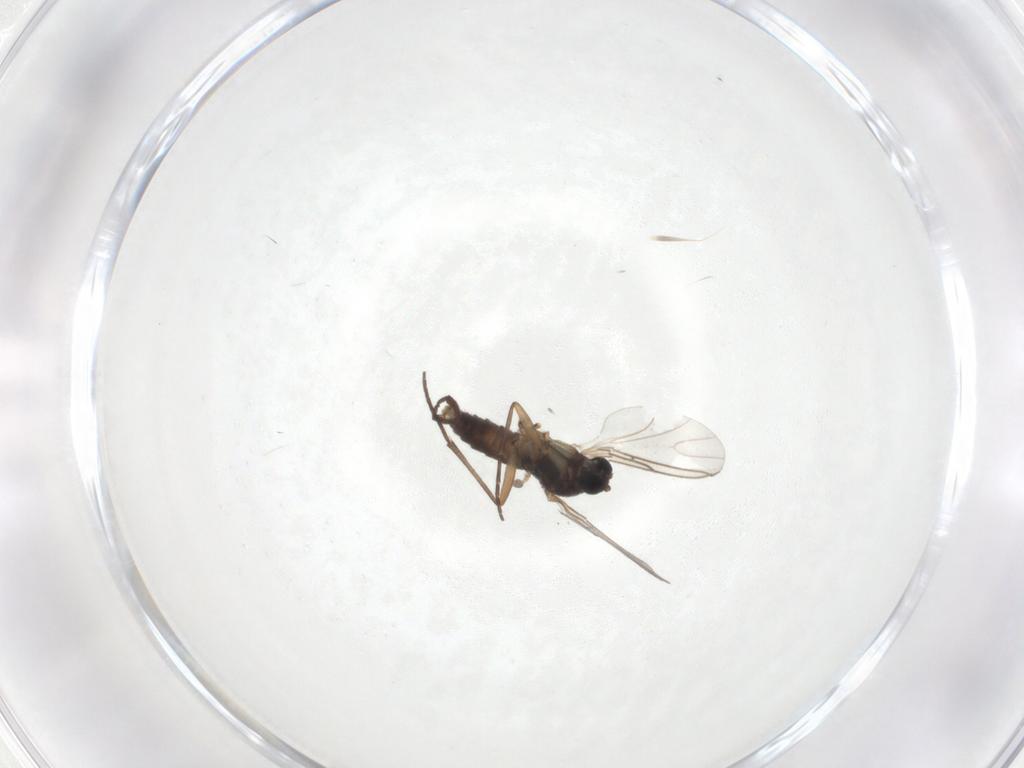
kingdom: Animalia
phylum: Arthropoda
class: Insecta
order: Diptera
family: Sciaridae
